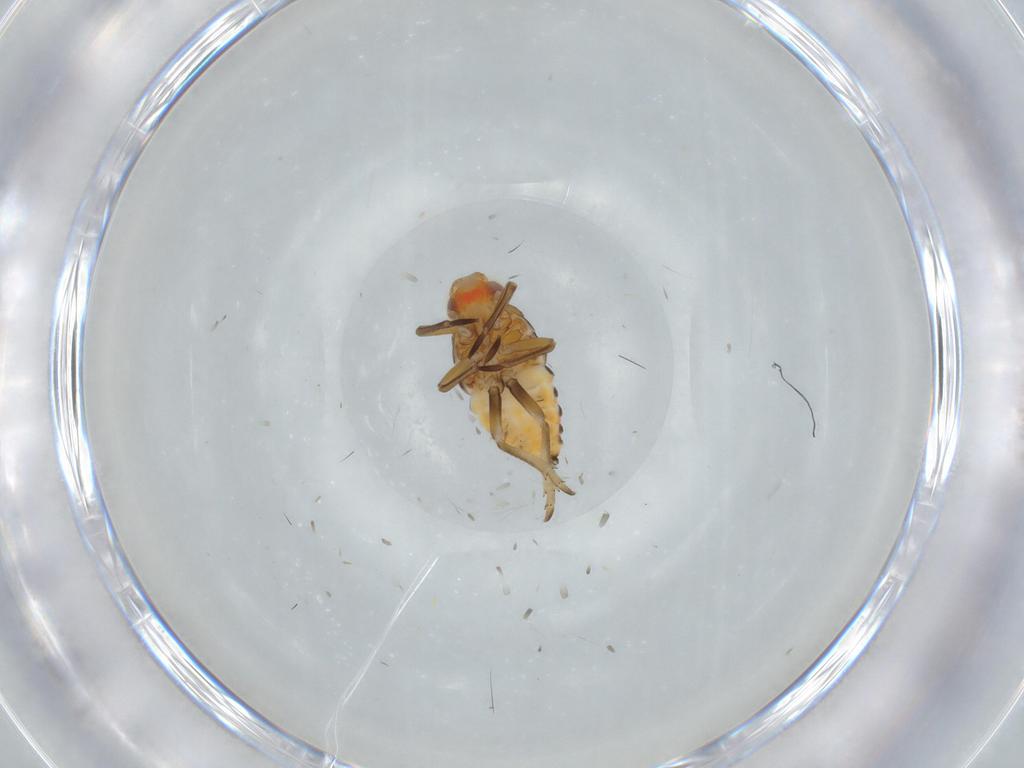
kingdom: Animalia
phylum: Arthropoda
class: Insecta
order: Hemiptera
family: Fulgoroidea_incertae_sedis
